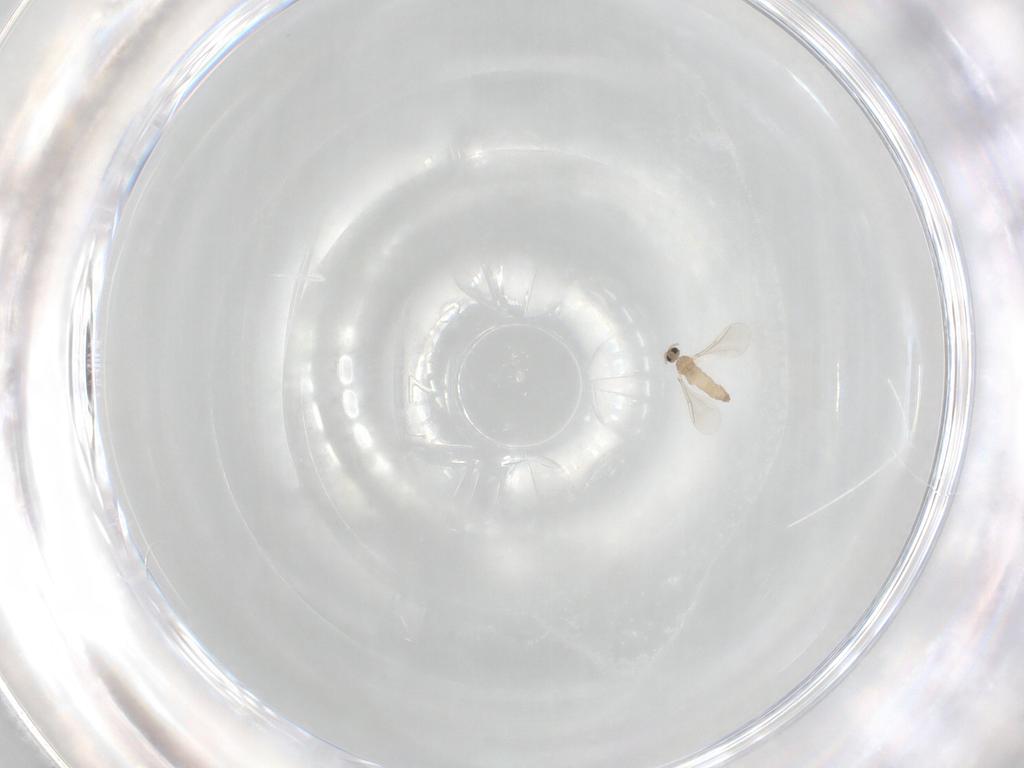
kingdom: Animalia
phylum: Arthropoda
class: Insecta
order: Diptera
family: Cecidomyiidae
